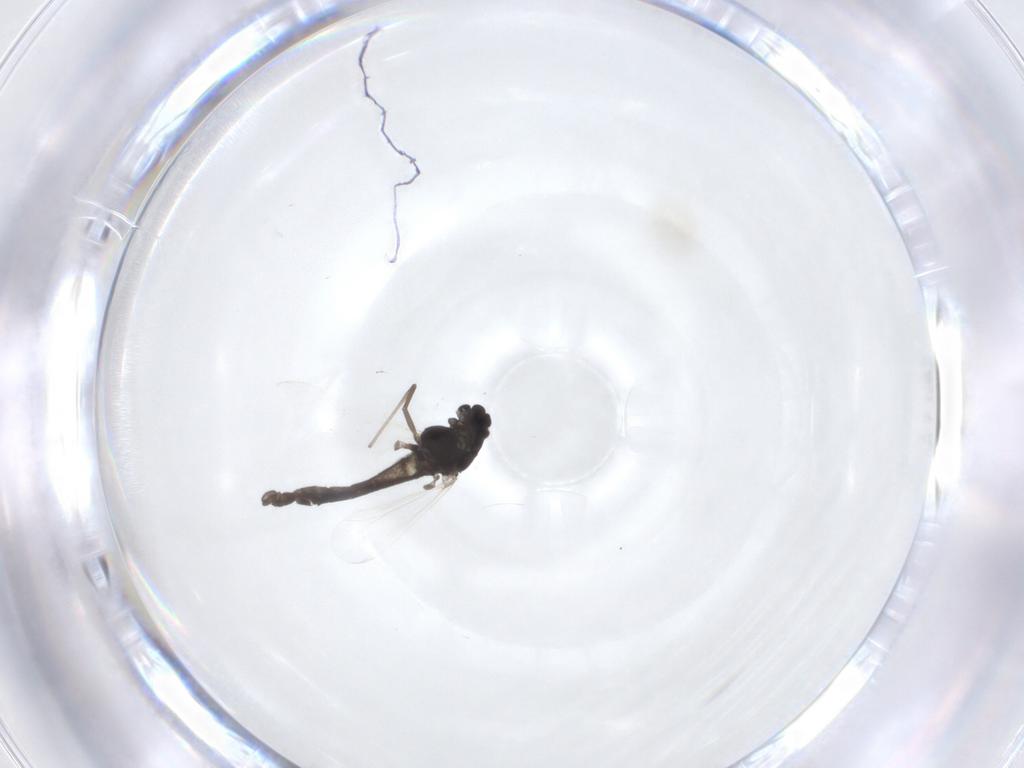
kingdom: Animalia
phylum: Arthropoda
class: Insecta
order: Diptera
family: Chironomidae
